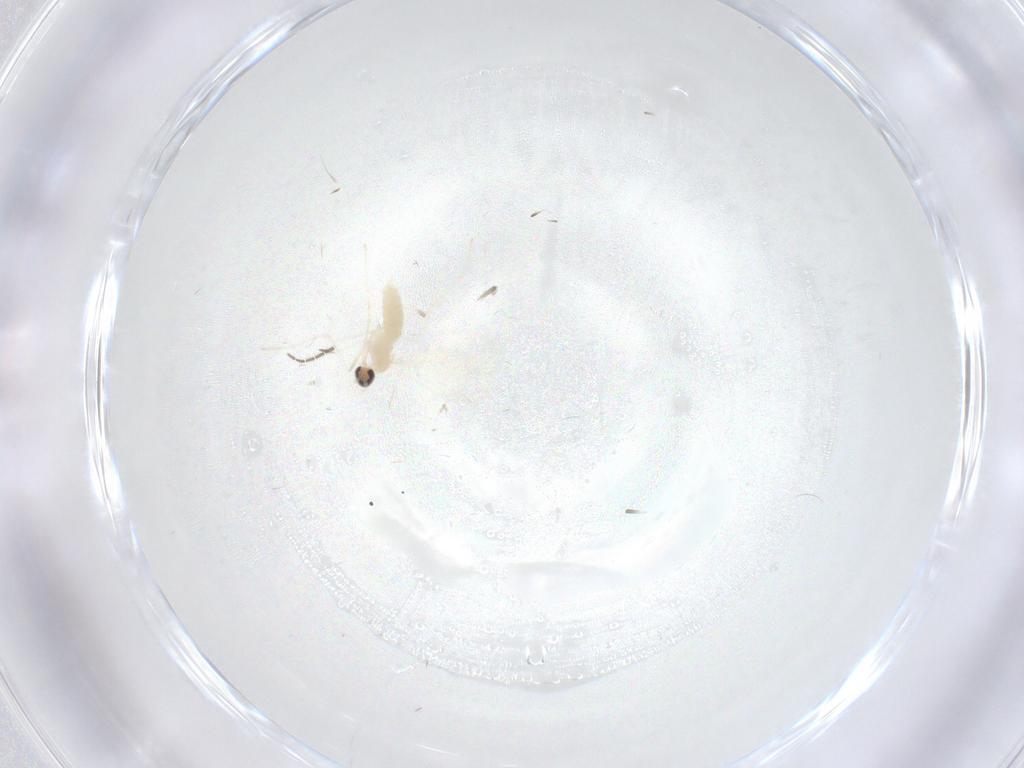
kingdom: Animalia
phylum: Arthropoda
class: Insecta
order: Diptera
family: Cecidomyiidae
